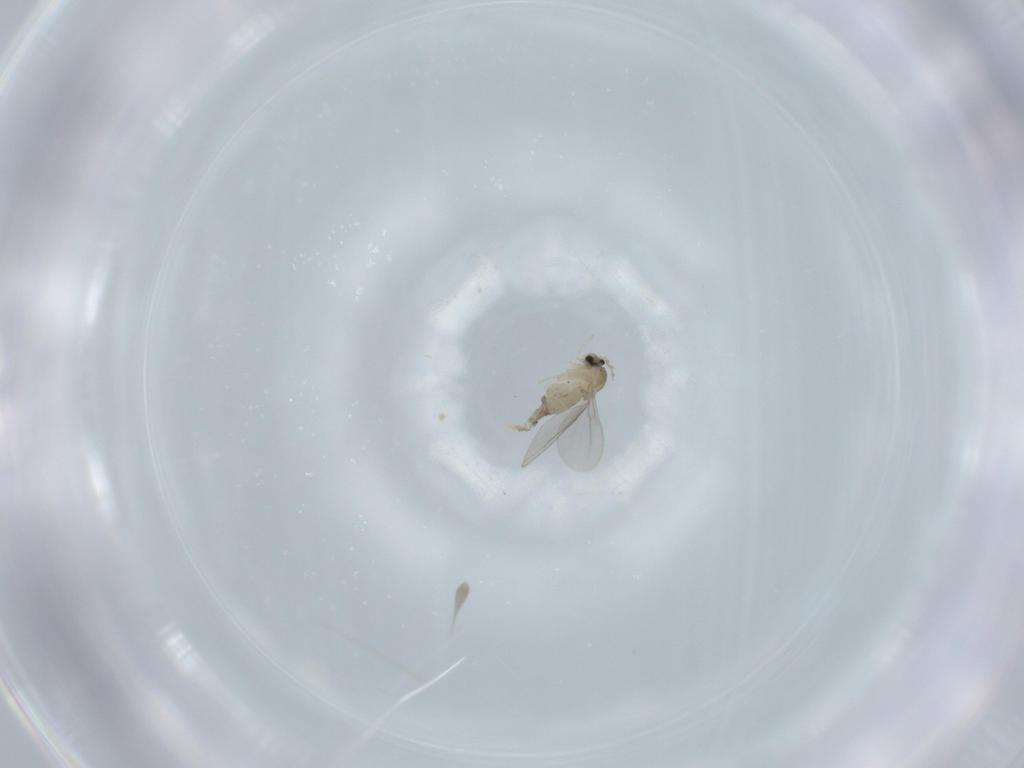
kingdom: Animalia
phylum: Arthropoda
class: Insecta
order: Diptera
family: Cecidomyiidae
